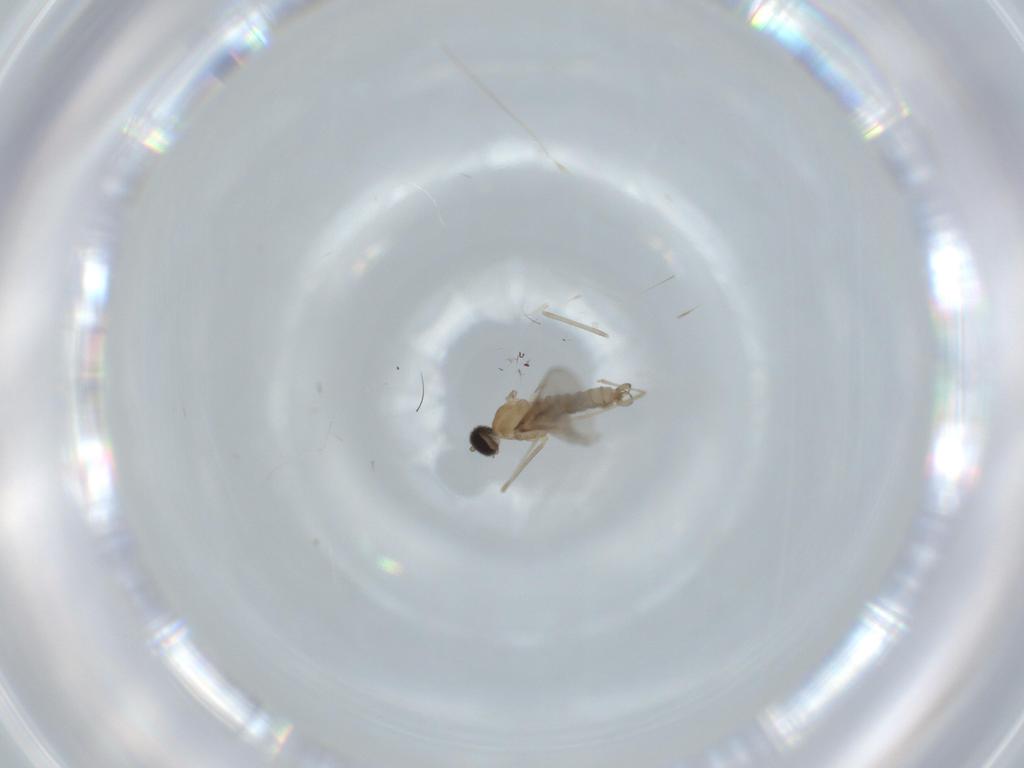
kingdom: Animalia
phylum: Arthropoda
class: Insecta
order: Diptera
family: Cecidomyiidae
